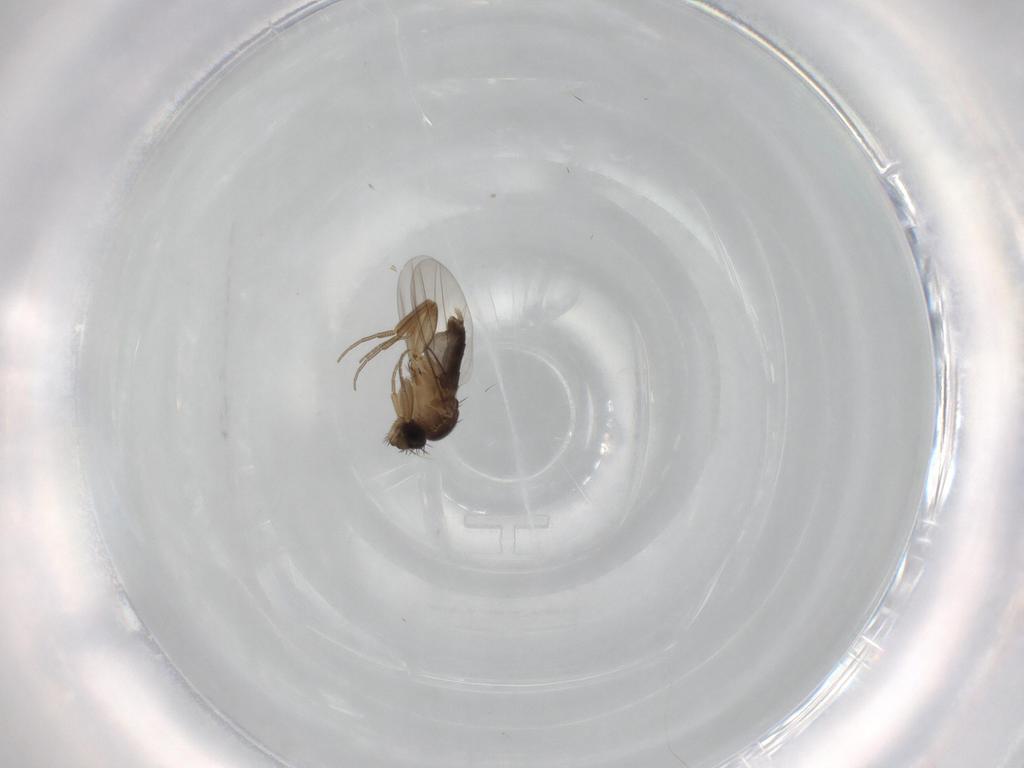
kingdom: Animalia
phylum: Arthropoda
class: Insecta
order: Diptera
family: Phoridae
